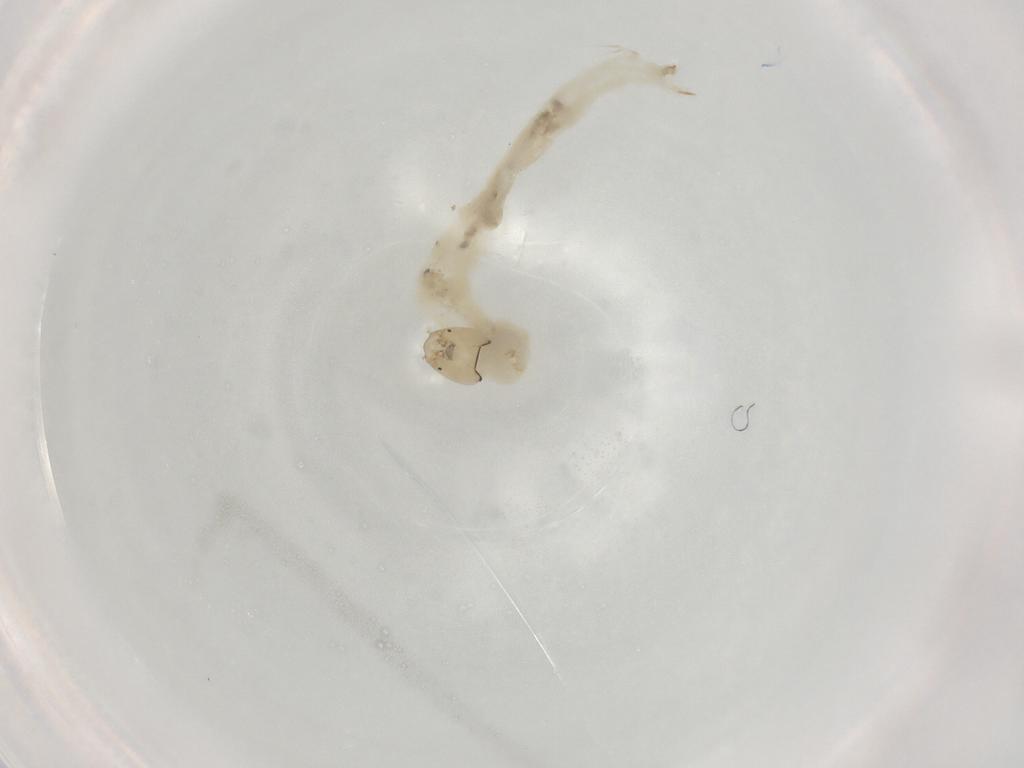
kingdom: Animalia
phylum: Arthropoda
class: Insecta
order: Diptera
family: Chironomidae
